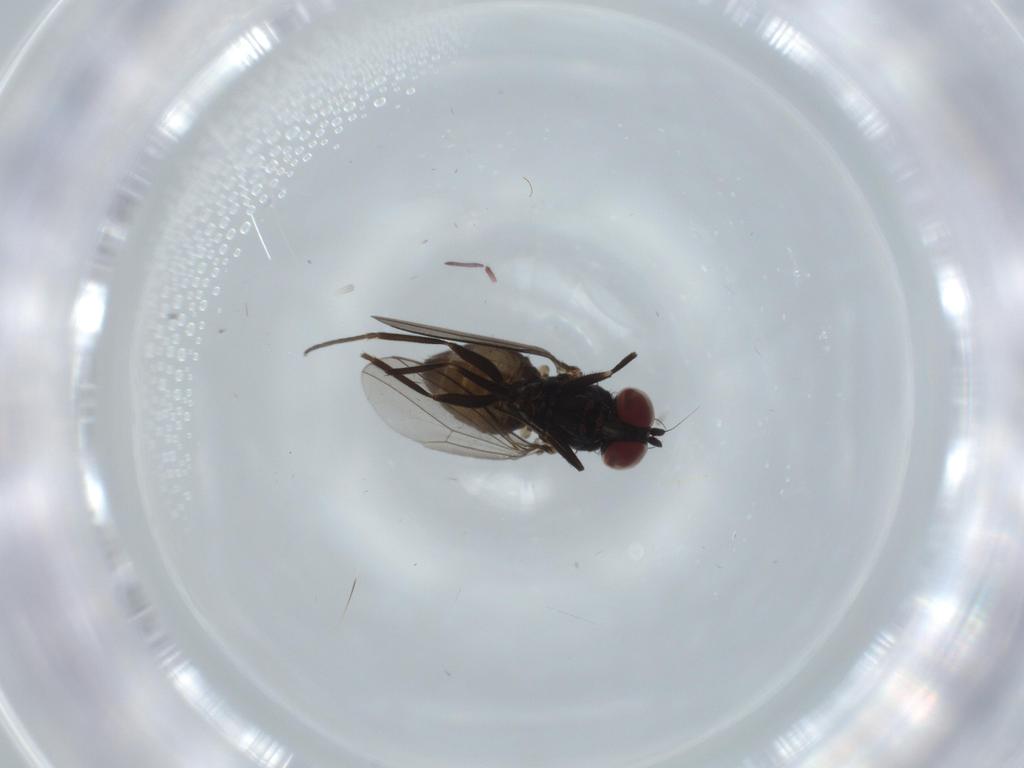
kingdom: Animalia
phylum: Arthropoda
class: Insecta
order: Diptera
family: Dolichopodidae
